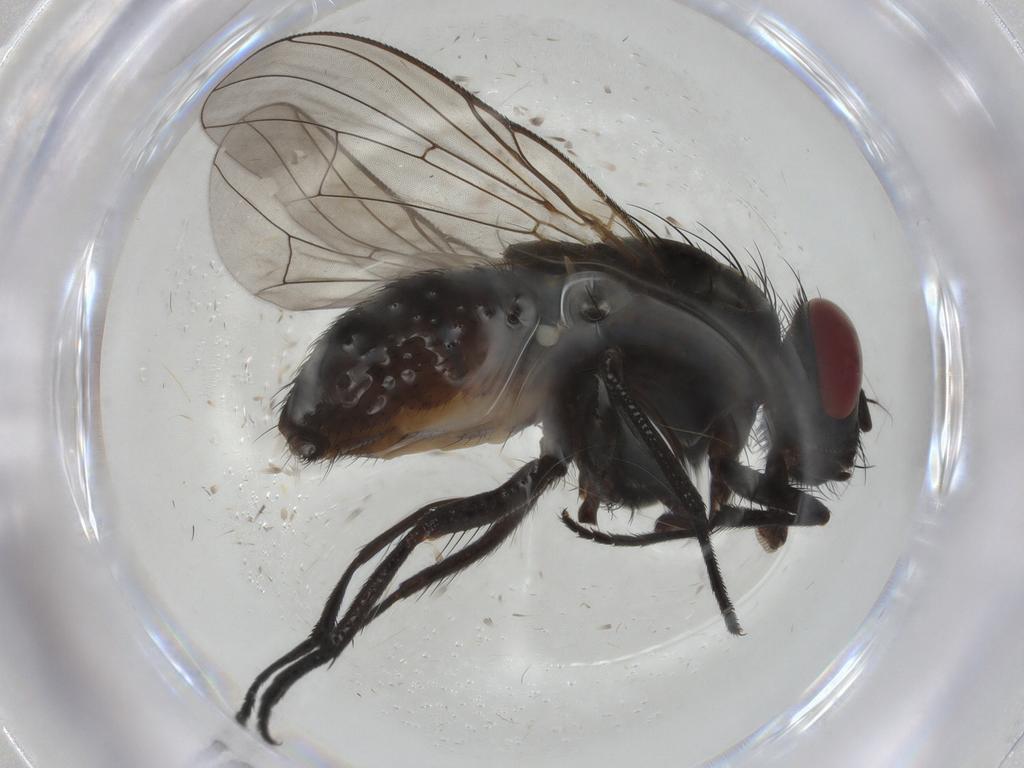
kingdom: Animalia
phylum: Arthropoda
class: Insecta
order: Diptera
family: Muscidae
